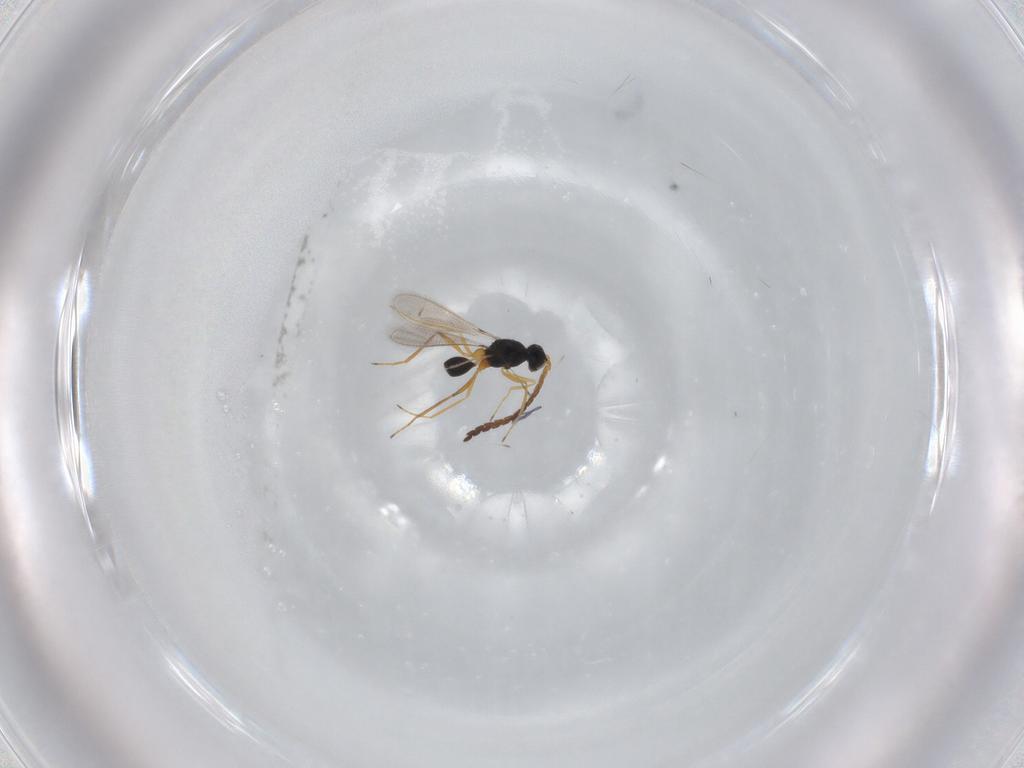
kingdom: Animalia
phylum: Arthropoda
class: Insecta
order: Hymenoptera
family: Mymaridae
